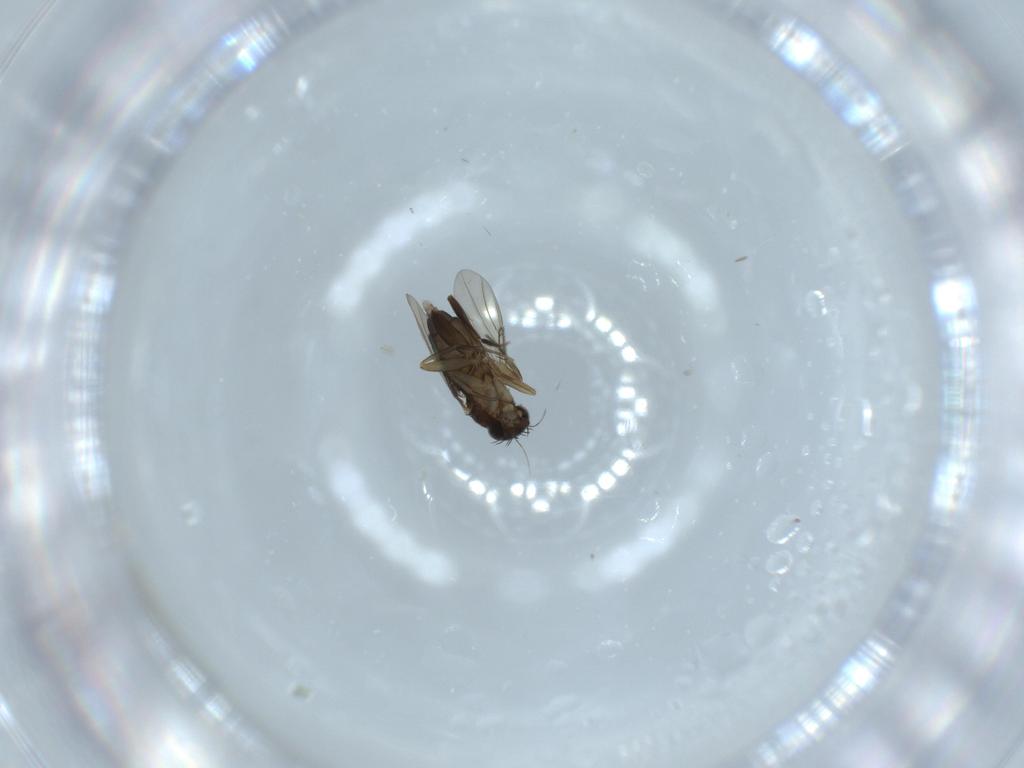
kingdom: Animalia
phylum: Arthropoda
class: Insecta
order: Diptera
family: Phoridae
